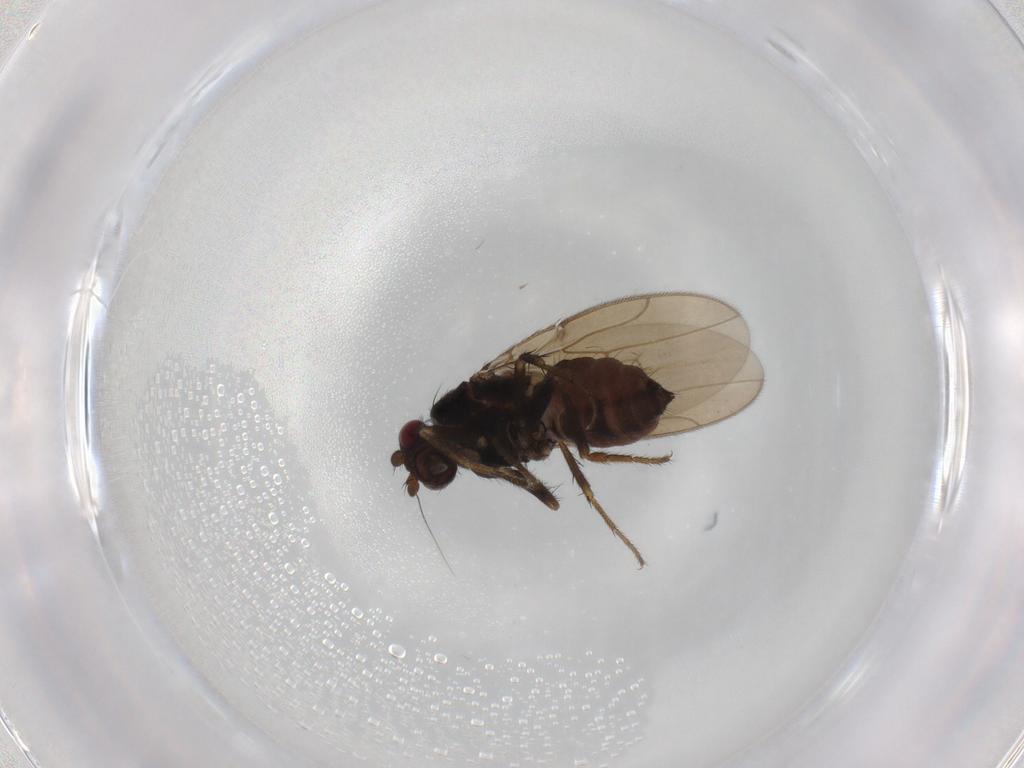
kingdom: Animalia
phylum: Arthropoda
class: Insecta
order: Diptera
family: Sphaeroceridae
